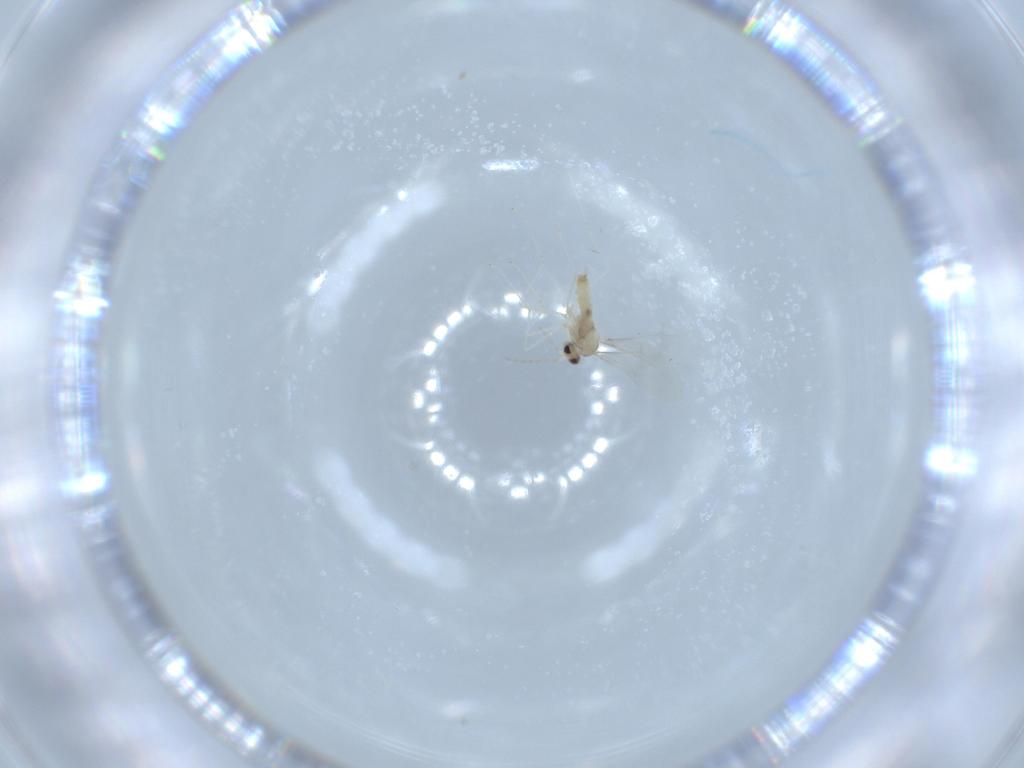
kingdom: Animalia
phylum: Arthropoda
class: Insecta
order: Diptera
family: Cecidomyiidae
